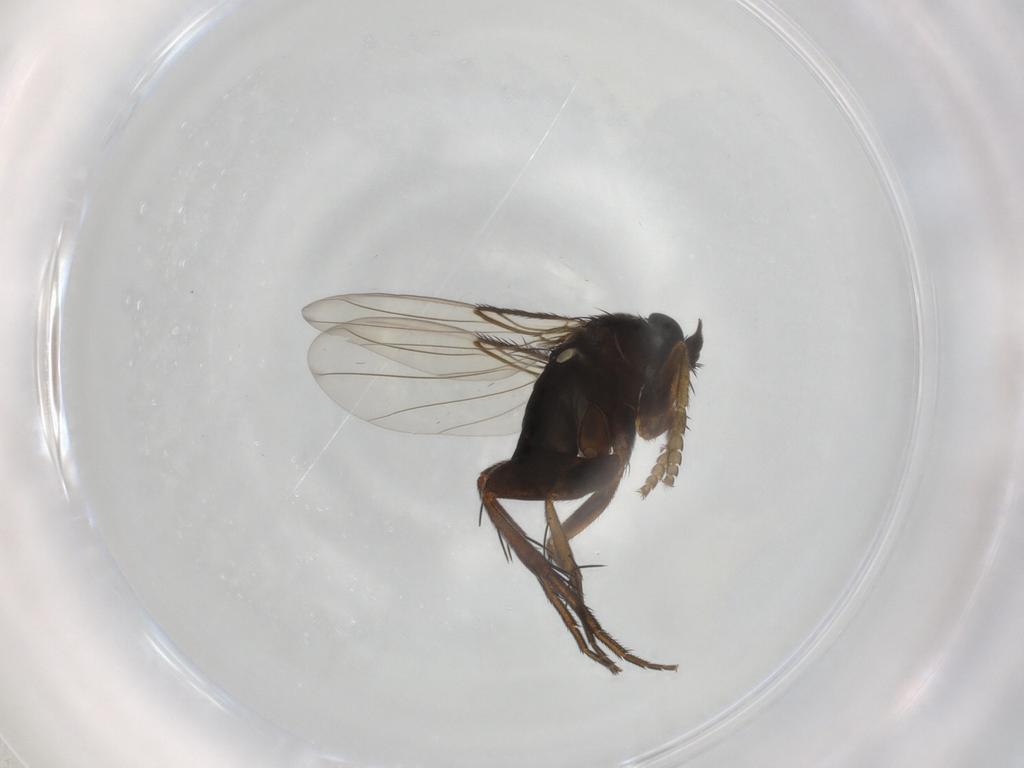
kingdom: Animalia
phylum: Arthropoda
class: Insecta
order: Diptera
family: Phoridae
